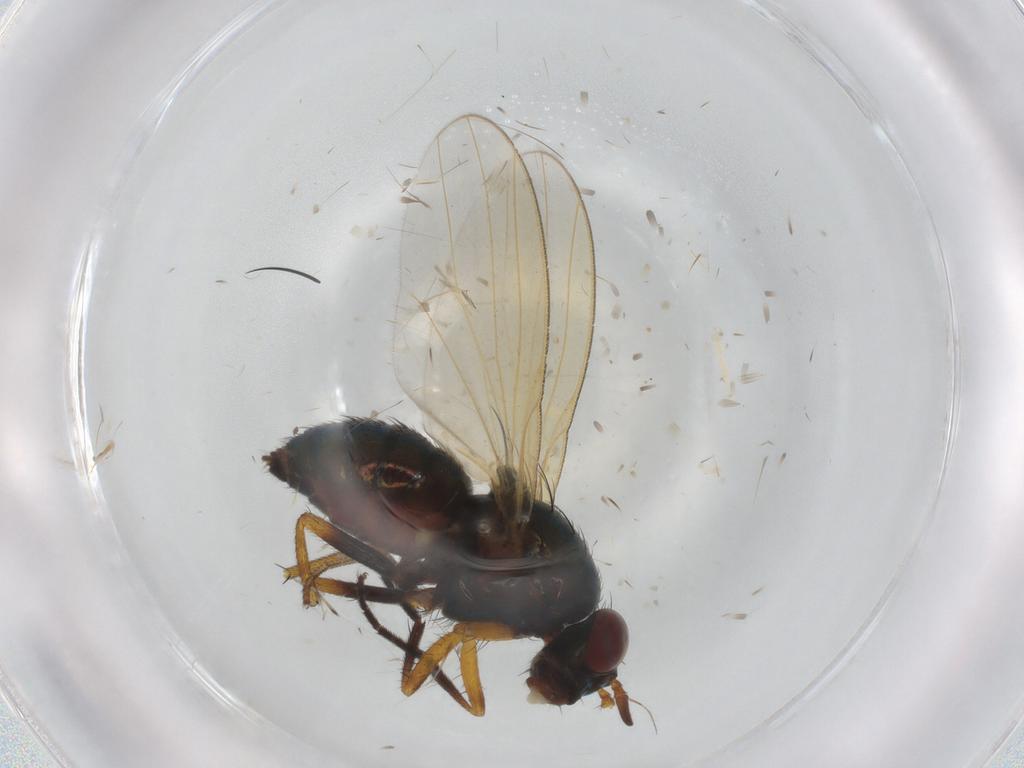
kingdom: Animalia
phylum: Arthropoda
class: Insecta
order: Diptera
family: Lauxaniidae
